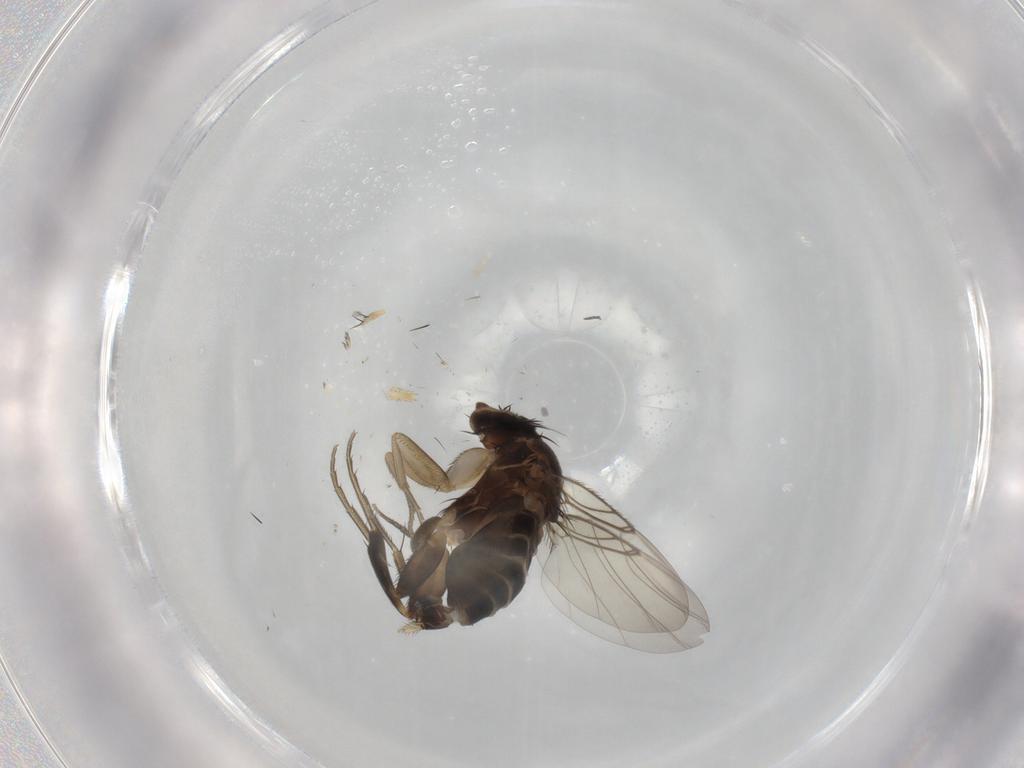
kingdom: Animalia
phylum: Arthropoda
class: Insecta
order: Diptera
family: Phoridae
